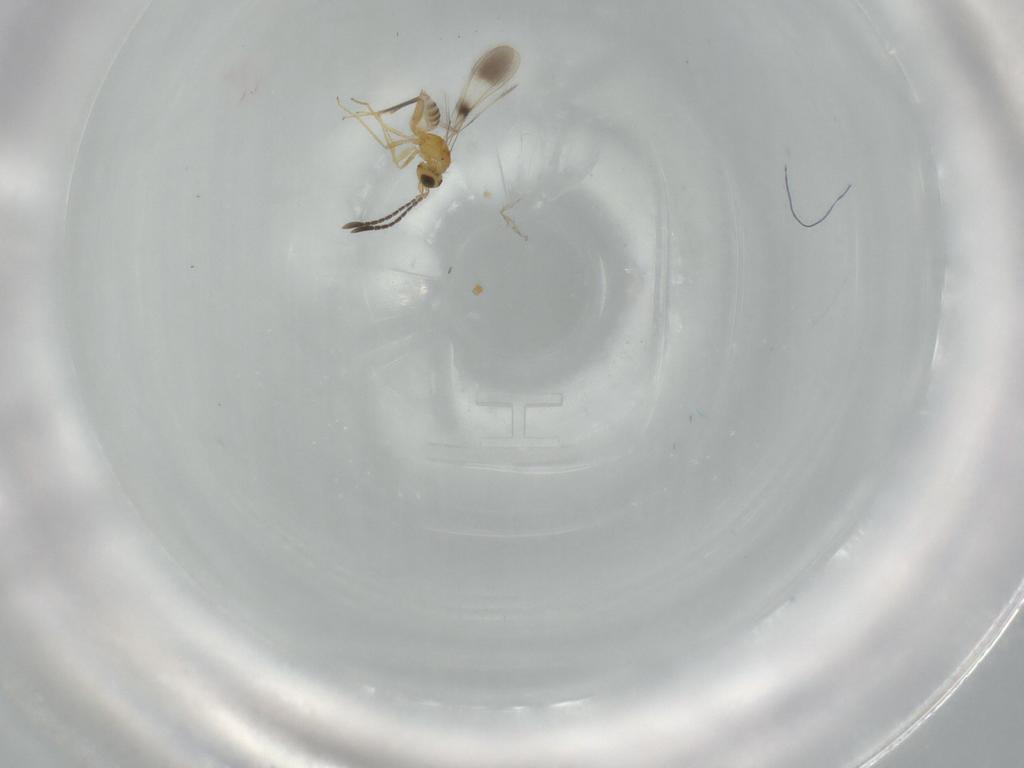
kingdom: Animalia
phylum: Arthropoda
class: Insecta
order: Hymenoptera
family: Mymaridae
